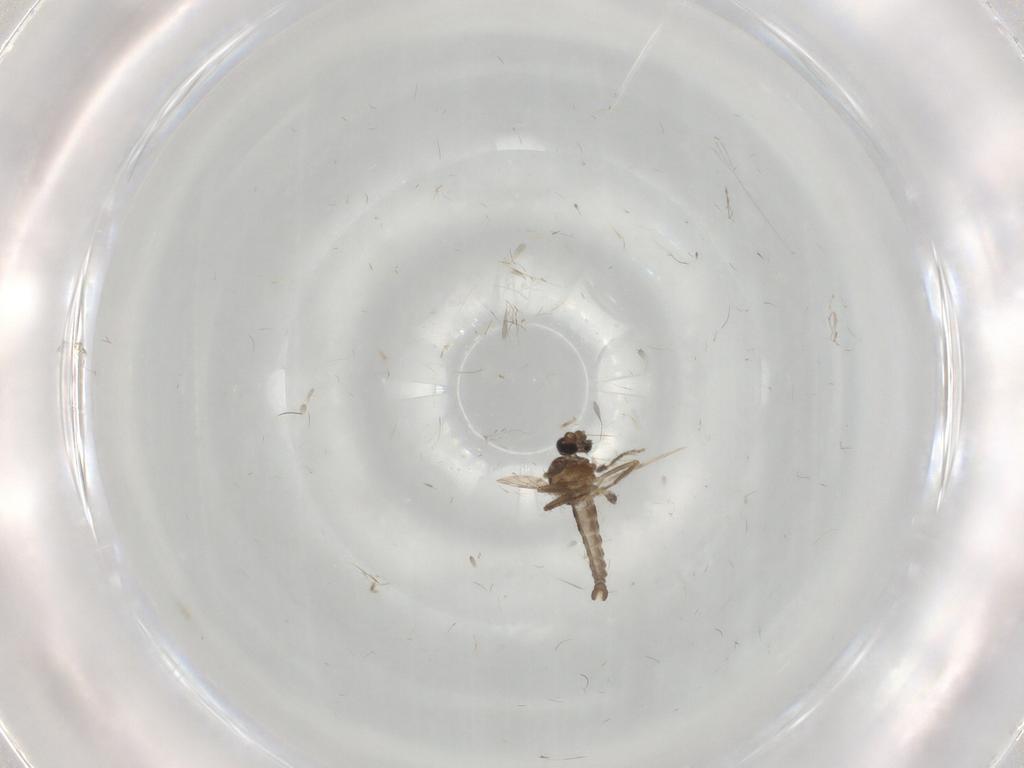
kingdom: Animalia
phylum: Arthropoda
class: Insecta
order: Diptera
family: Ceratopogonidae
